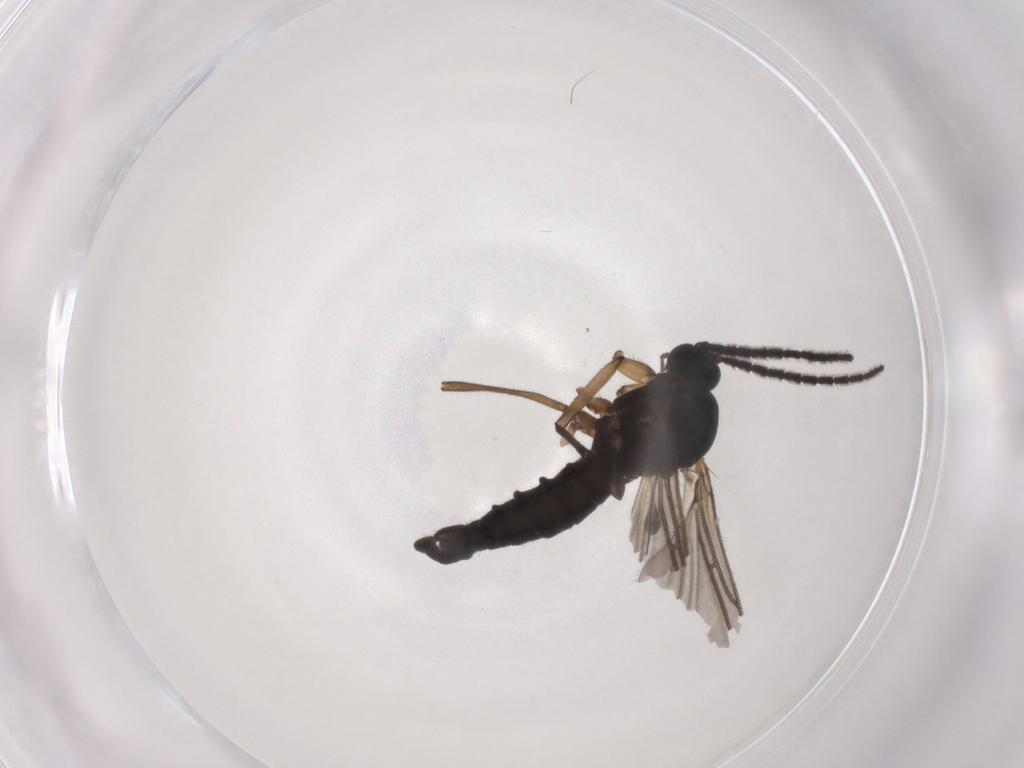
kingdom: Animalia
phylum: Arthropoda
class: Insecta
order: Diptera
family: Sciaridae
